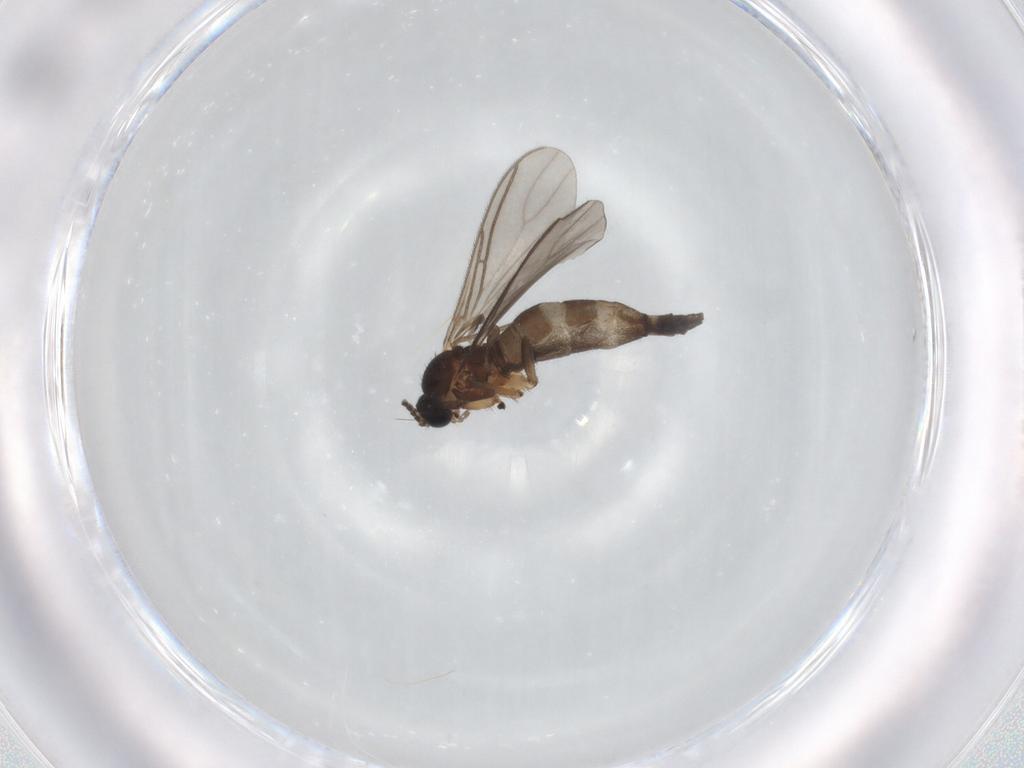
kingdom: Animalia
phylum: Arthropoda
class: Insecta
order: Diptera
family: Sciaridae
